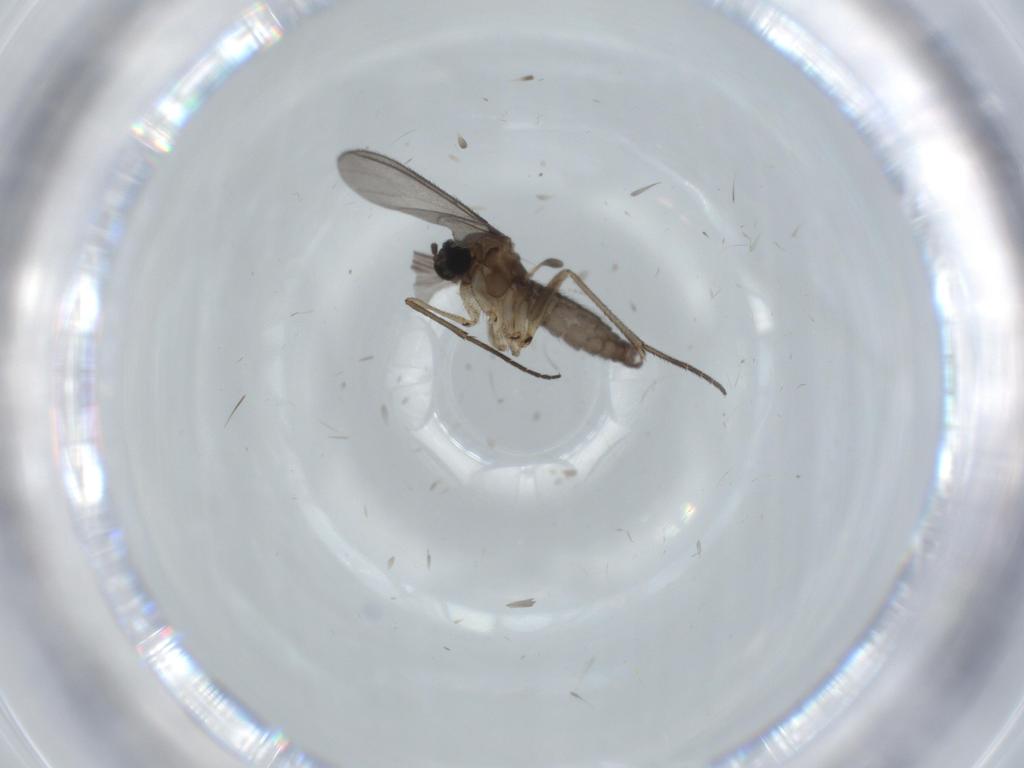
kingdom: Animalia
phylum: Arthropoda
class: Insecta
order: Diptera
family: Sciaridae
